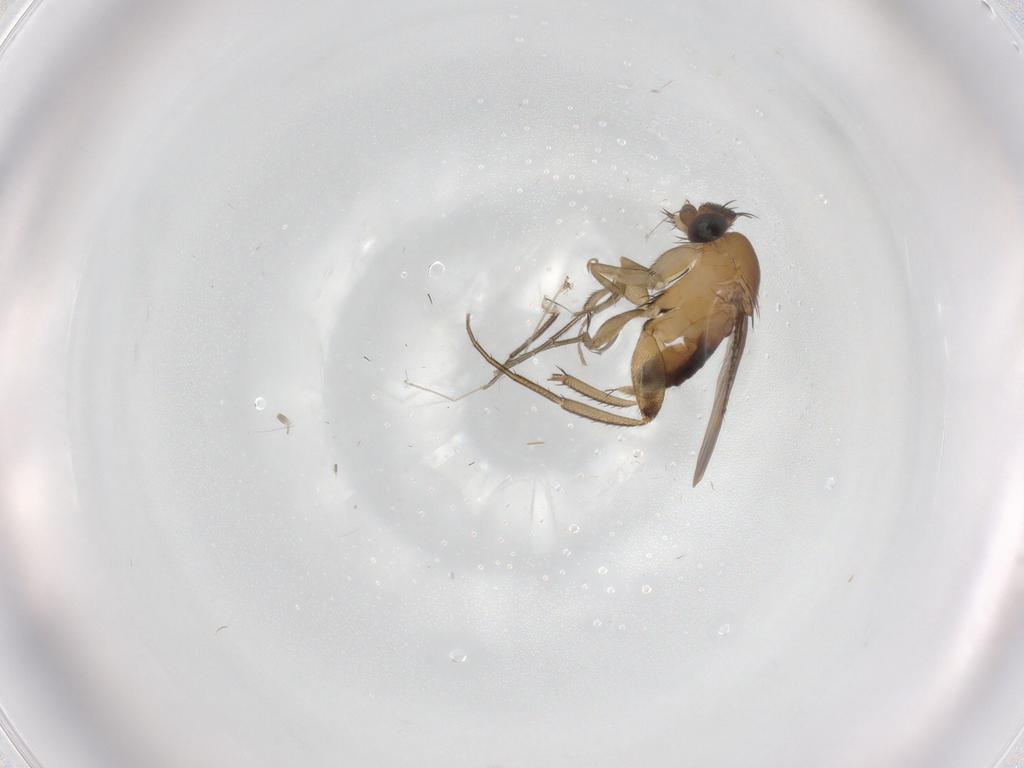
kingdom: Animalia
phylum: Arthropoda
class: Insecta
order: Diptera
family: Phoridae
